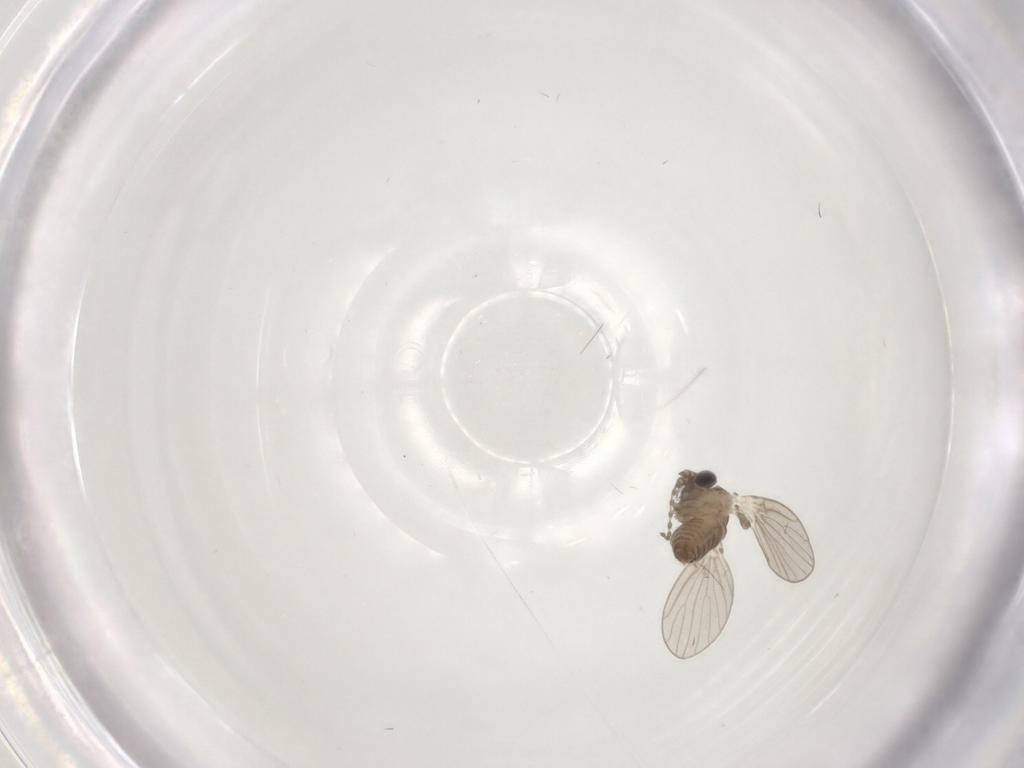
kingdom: Animalia
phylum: Arthropoda
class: Insecta
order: Diptera
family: Psychodidae
